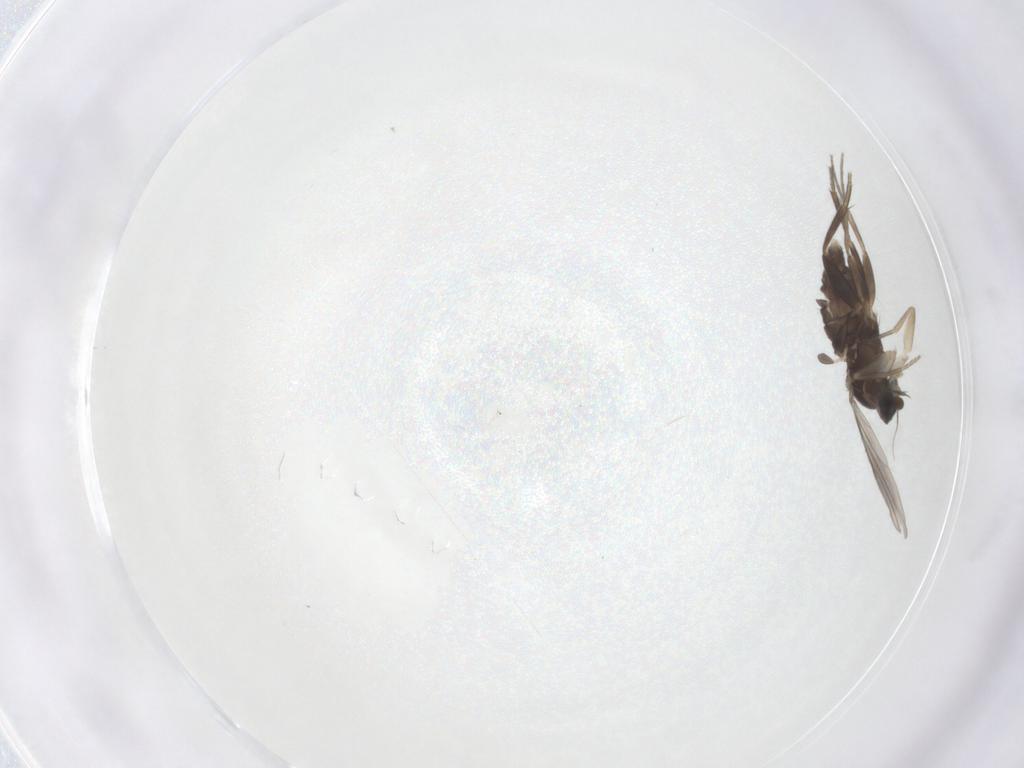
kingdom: Animalia
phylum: Arthropoda
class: Insecta
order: Diptera
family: Phoridae
